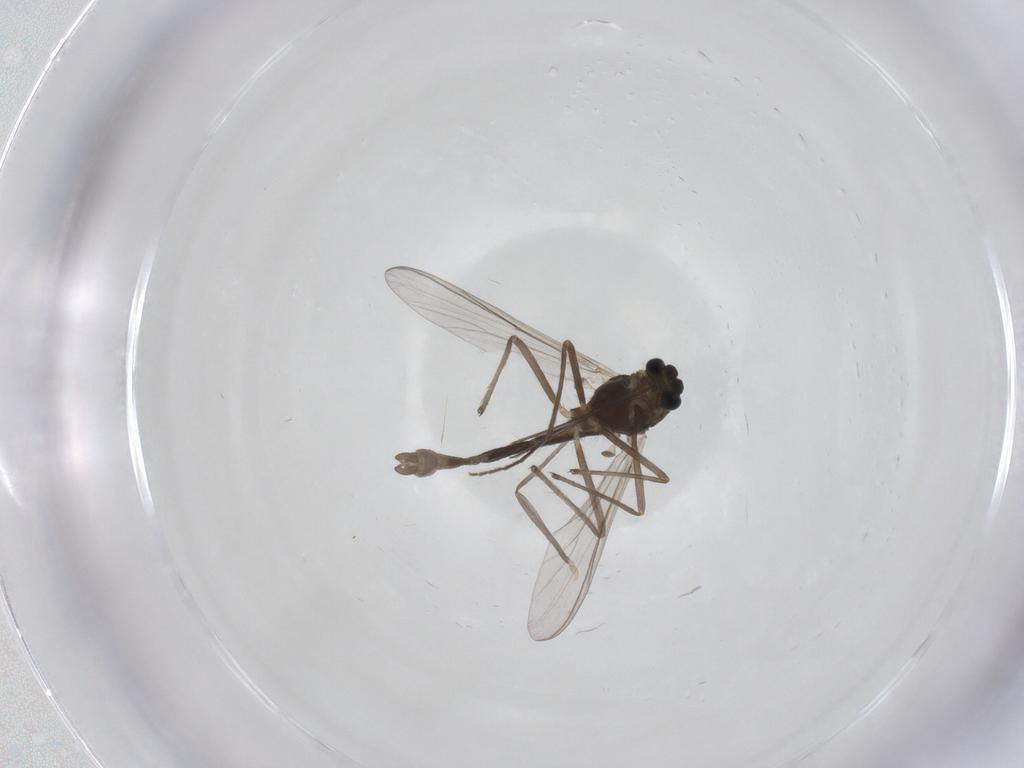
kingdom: Animalia
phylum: Arthropoda
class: Insecta
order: Diptera
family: Chironomidae
